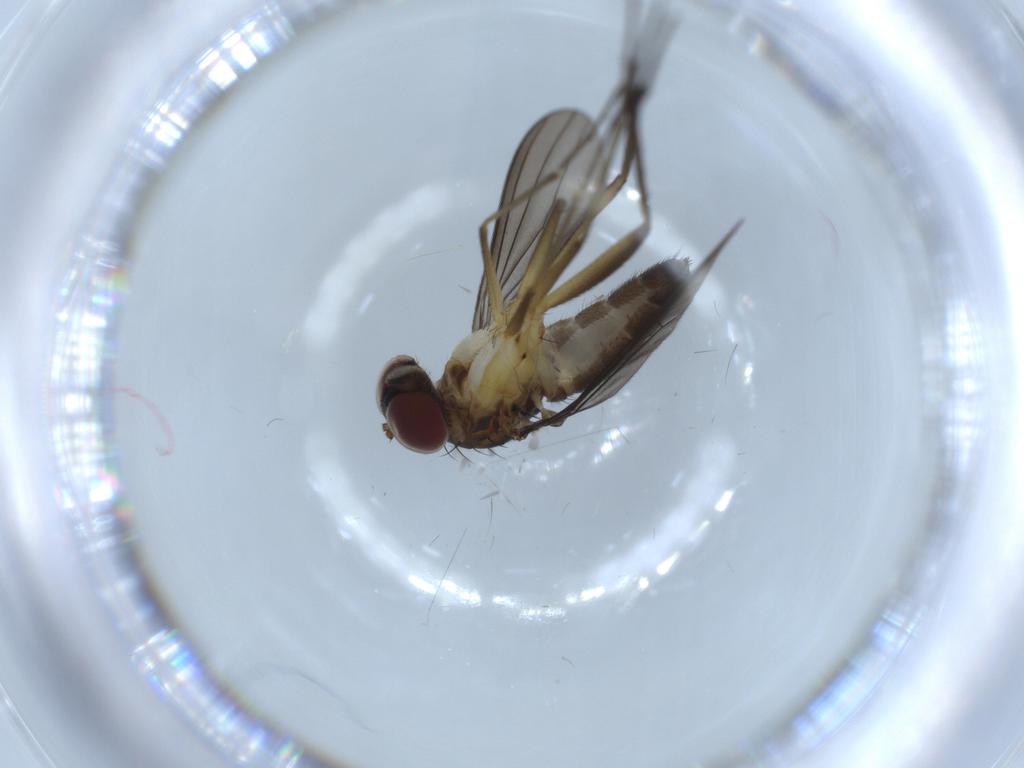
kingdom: Animalia
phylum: Arthropoda
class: Insecta
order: Diptera
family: Dolichopodidae
